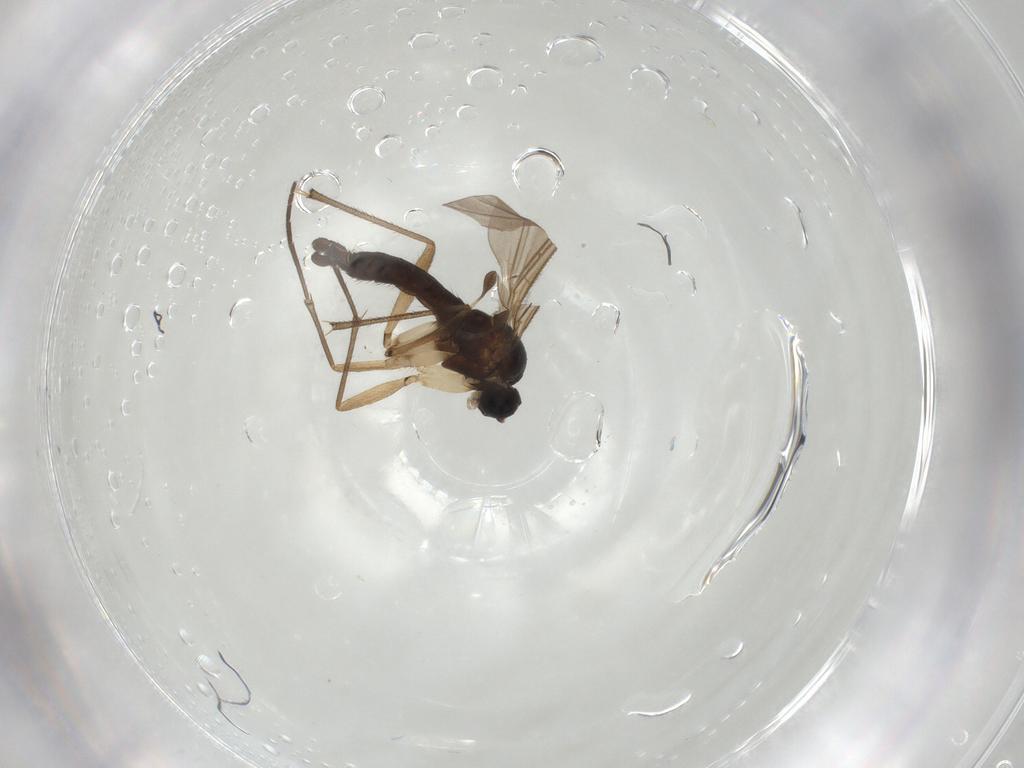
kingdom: Animalia
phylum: Arthropoda
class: Insecta
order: Diptera
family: Sciaridae
